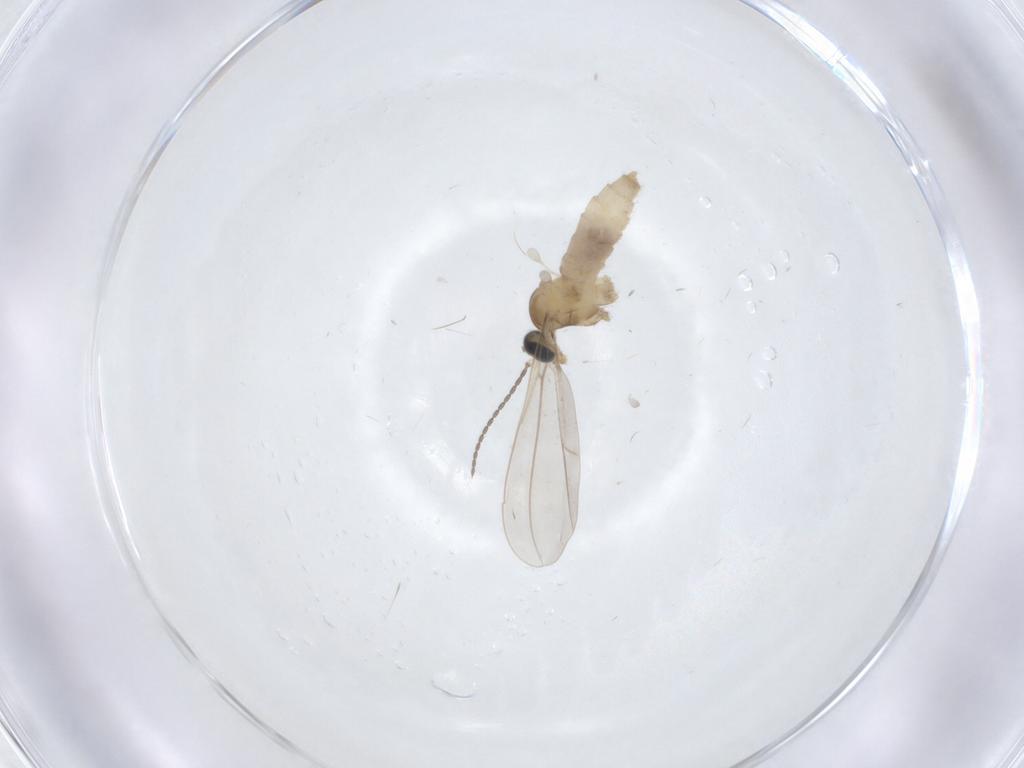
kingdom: Animalia
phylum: Arthropoda
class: Insecta
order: Diptera
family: Cecidomyiidae
